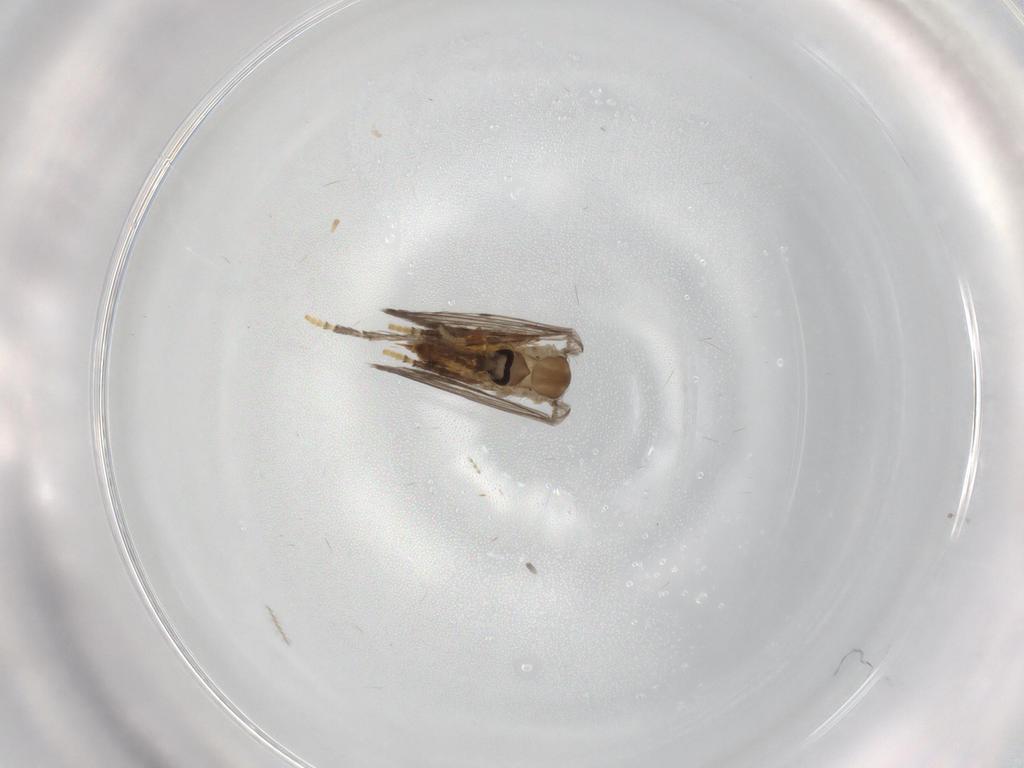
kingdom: Animalia
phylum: Arthropoda
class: Insecta
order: Diptera
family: Psychodidae
